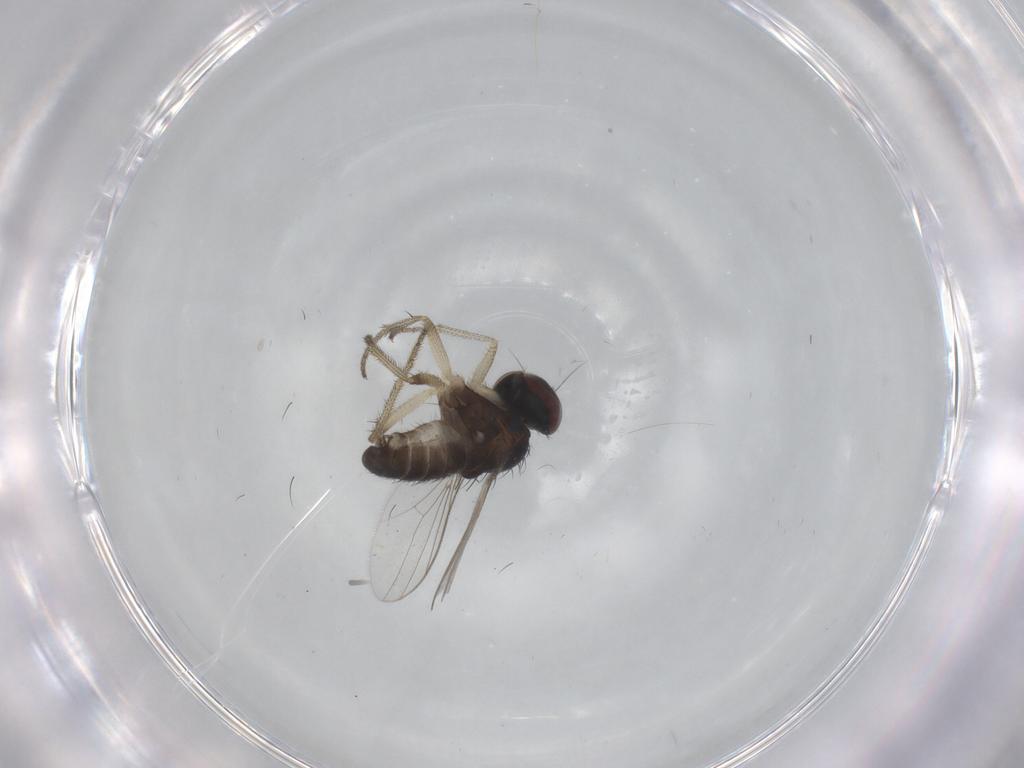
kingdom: Animalia
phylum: Arthropoda
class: Insecta
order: Diptera
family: Dolichopodidae
